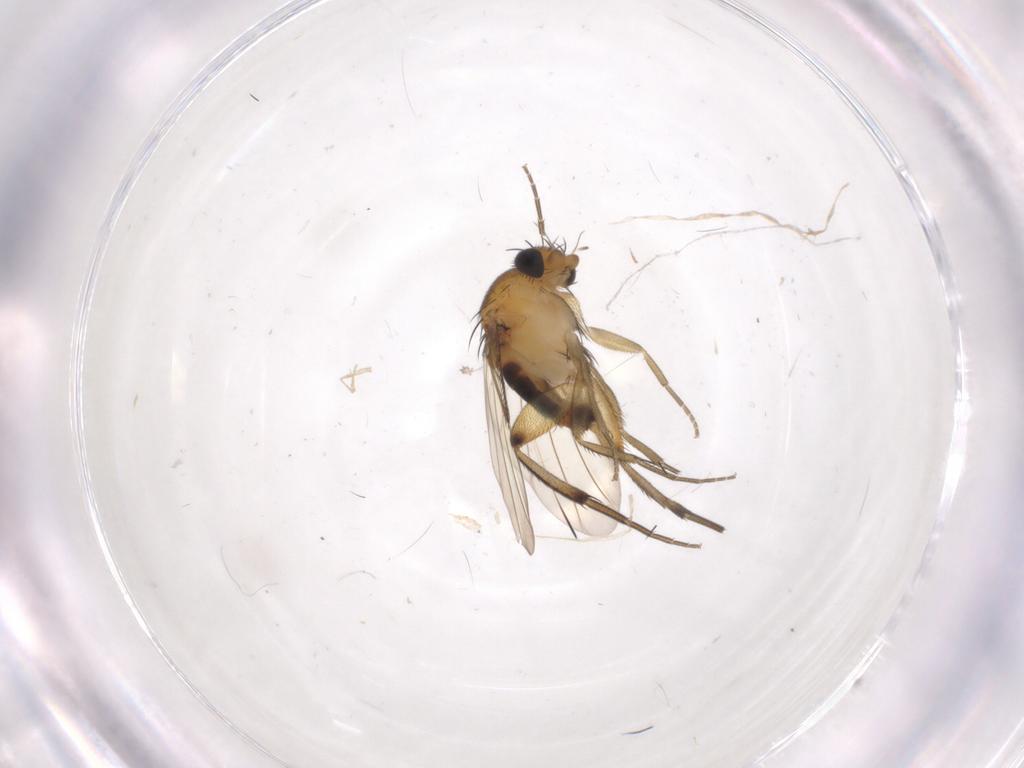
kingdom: Animalia
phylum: Arthropoda
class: Insecta
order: Diptera
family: Phoridae
